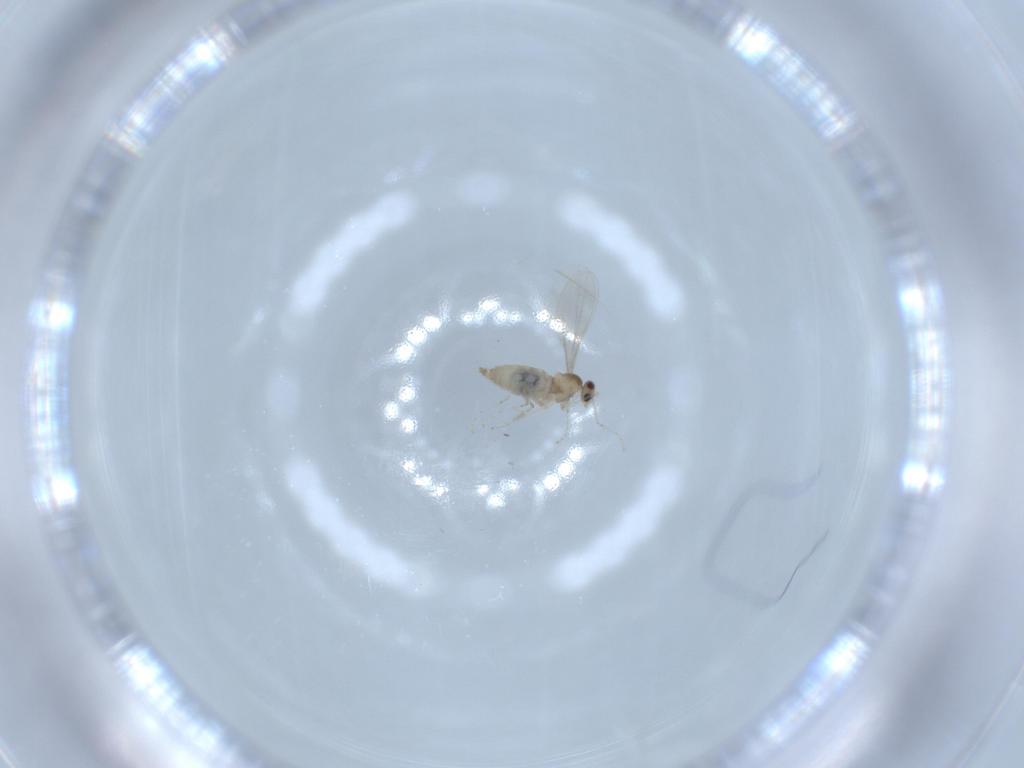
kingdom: Animalia
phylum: Arthropoda
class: Insecta
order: Diptera
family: Cecidomyiidae
